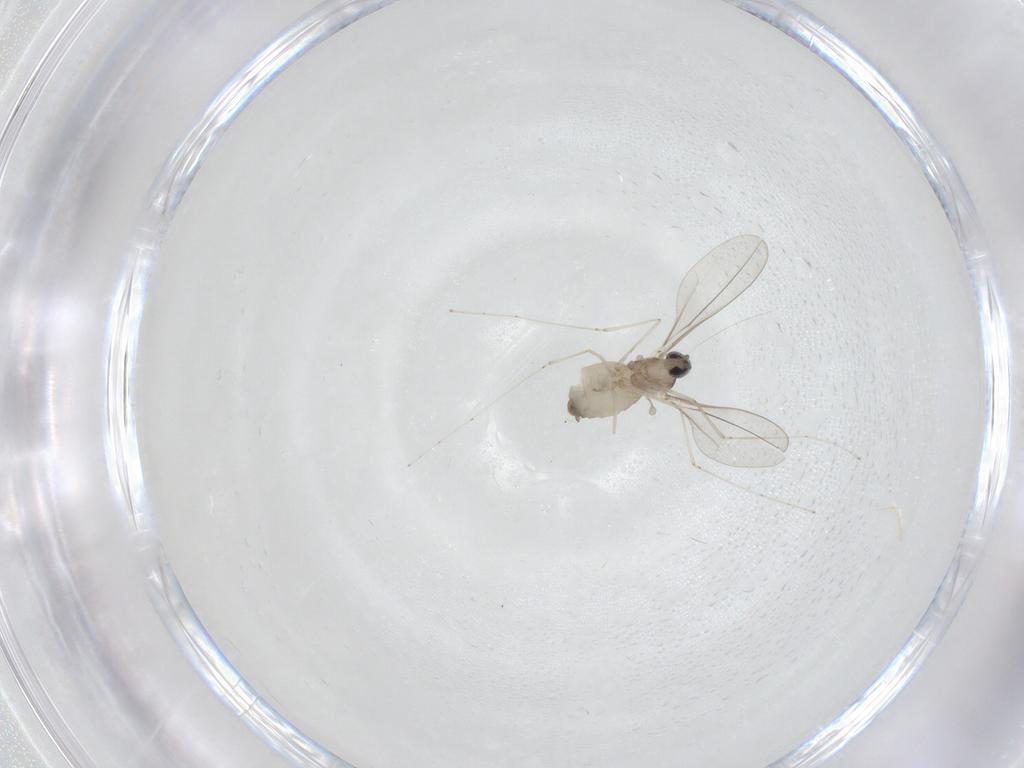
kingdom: Animalia
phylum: Arthropoda
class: Insecta
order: Diptera
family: Cecidomyiidae
